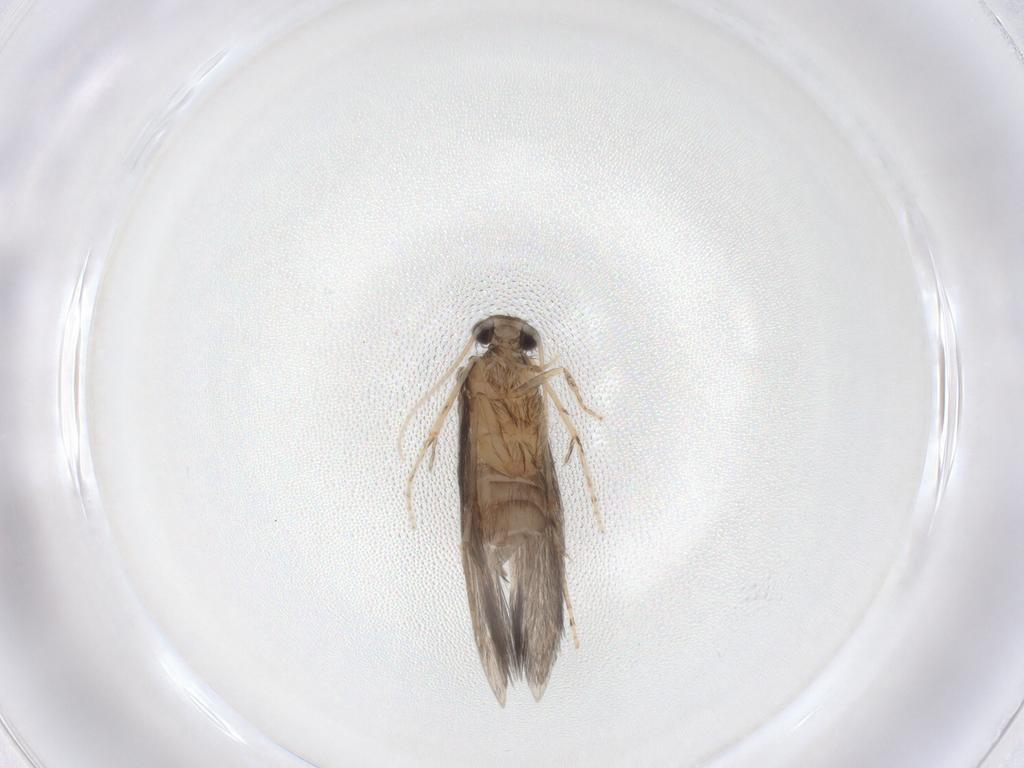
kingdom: Animalia
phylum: Arthropoda
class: Insecta
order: Trichoptera
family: Hydroptilidae
